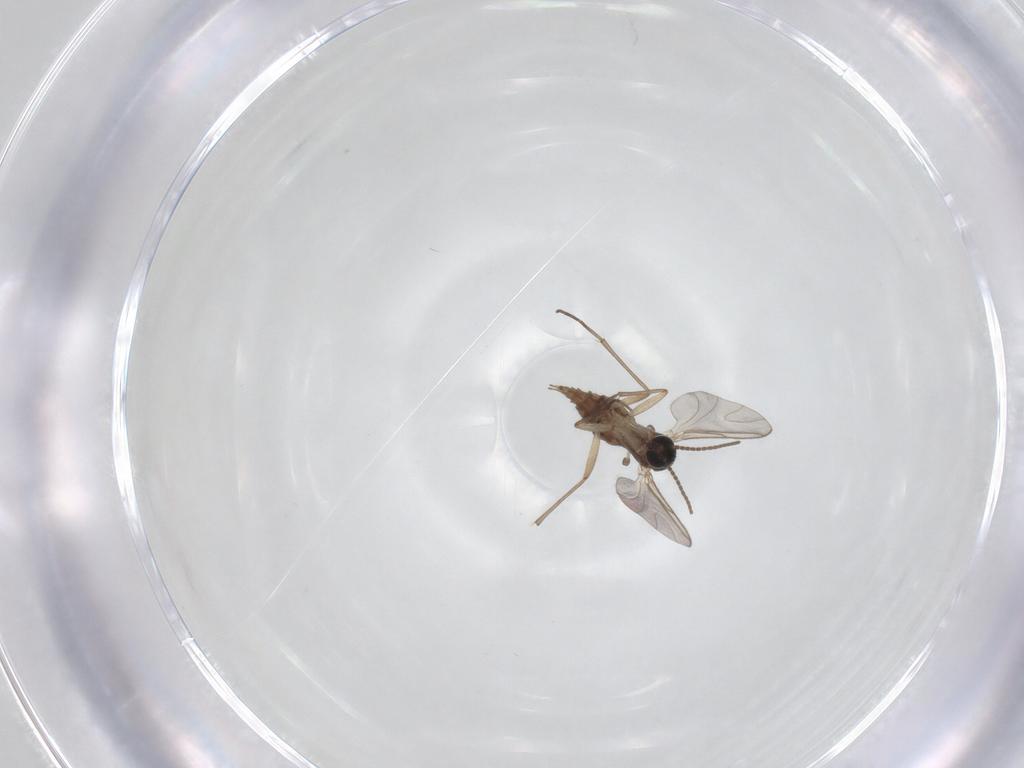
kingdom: Animalia
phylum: Arthropoda
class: Insecta
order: Diptera
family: Sciaridae
